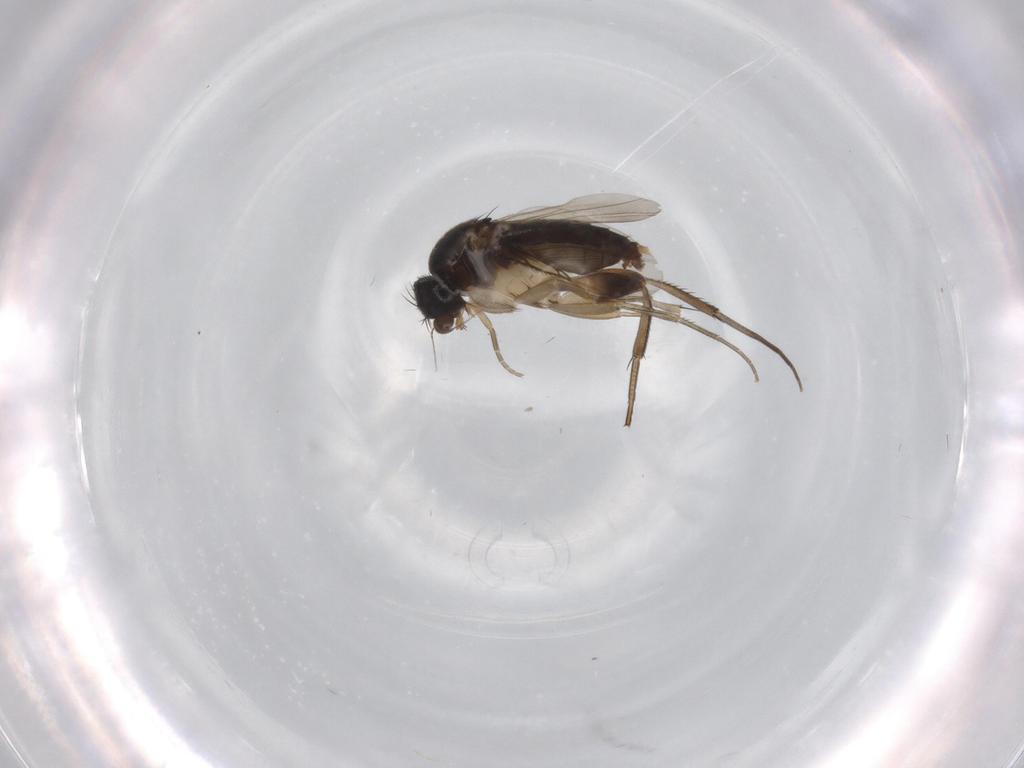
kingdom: Animalia
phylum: Arthropoda
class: Insecta
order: Diptera
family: Phoridae
